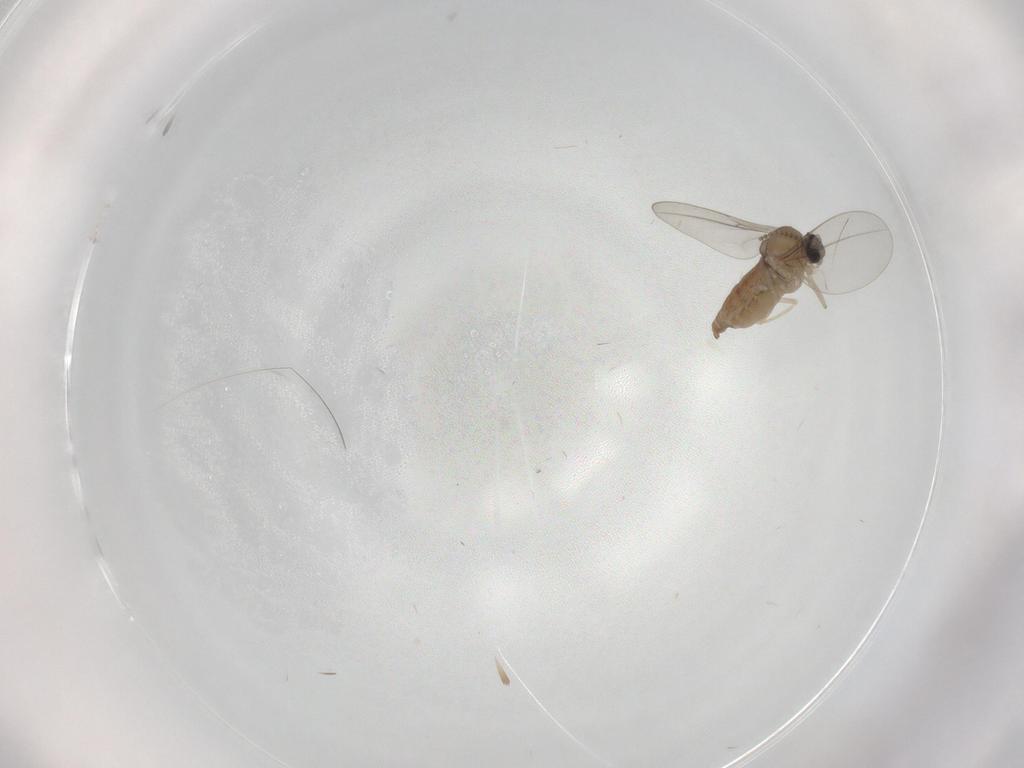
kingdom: Animalia
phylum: Arthropoda
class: Insecta
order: Diptera
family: Cecidomyiidae
